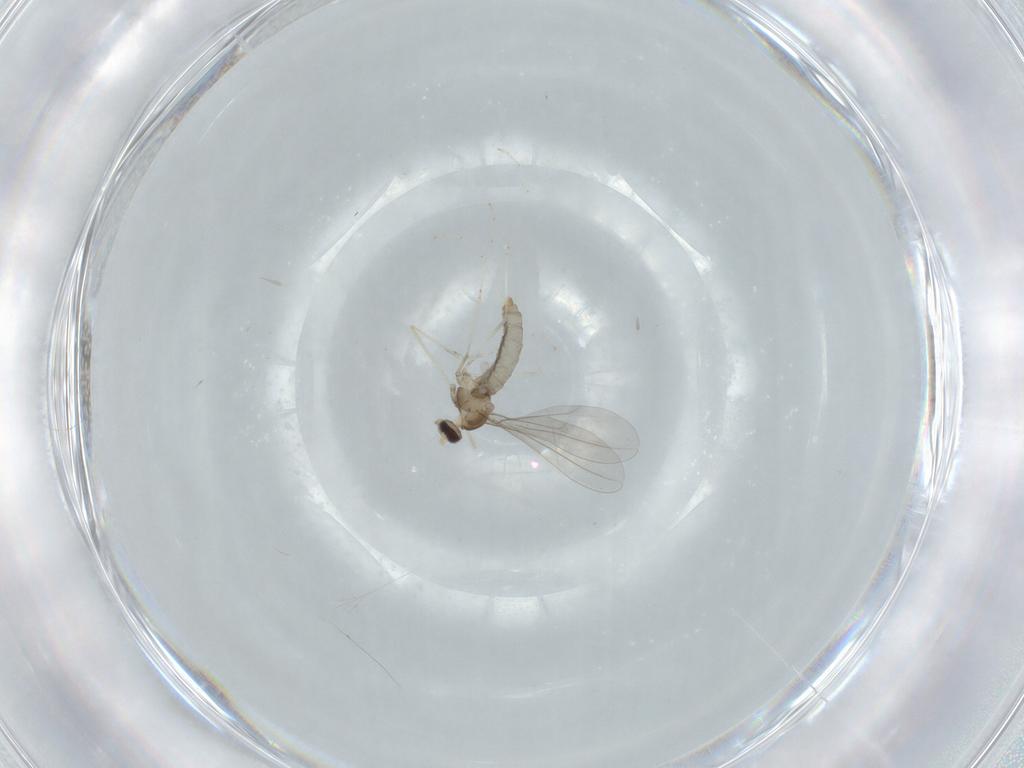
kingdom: Animalia
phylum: Arthropoda
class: Insecta
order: Diptera
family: Cecidomyiidae
